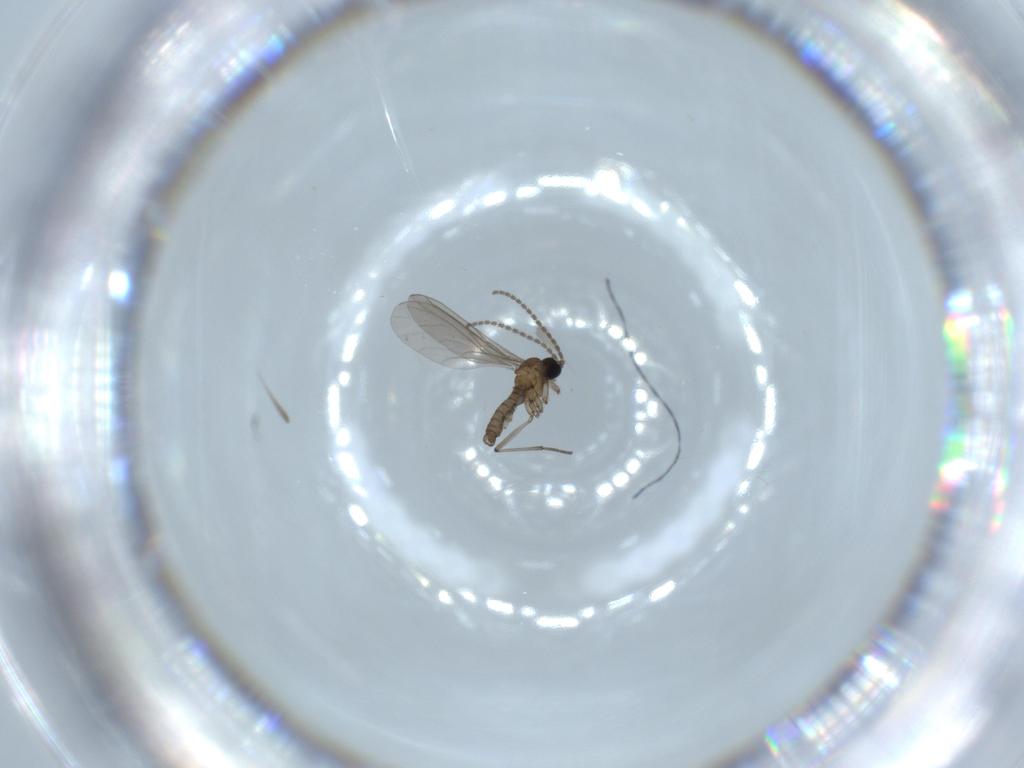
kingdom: Animalia
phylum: Arthropoda
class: Insecta
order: Diptera
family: Sciaridae
